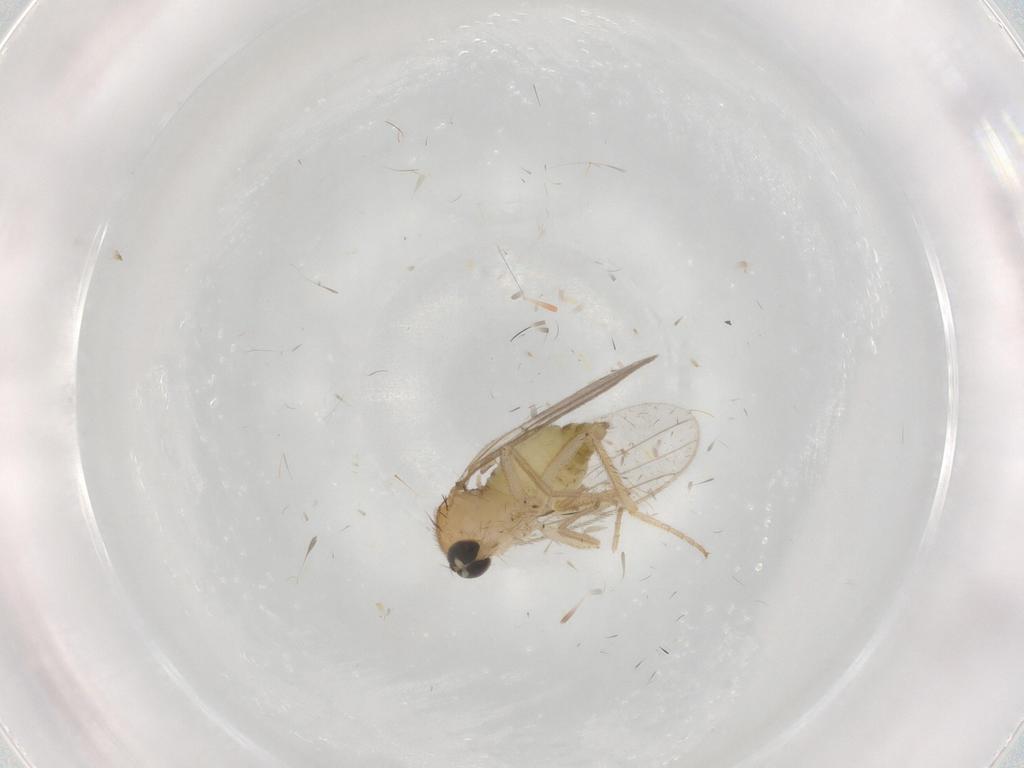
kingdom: Animalia
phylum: Arthropoda
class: Insecta
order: Diptera
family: Hybotidae
